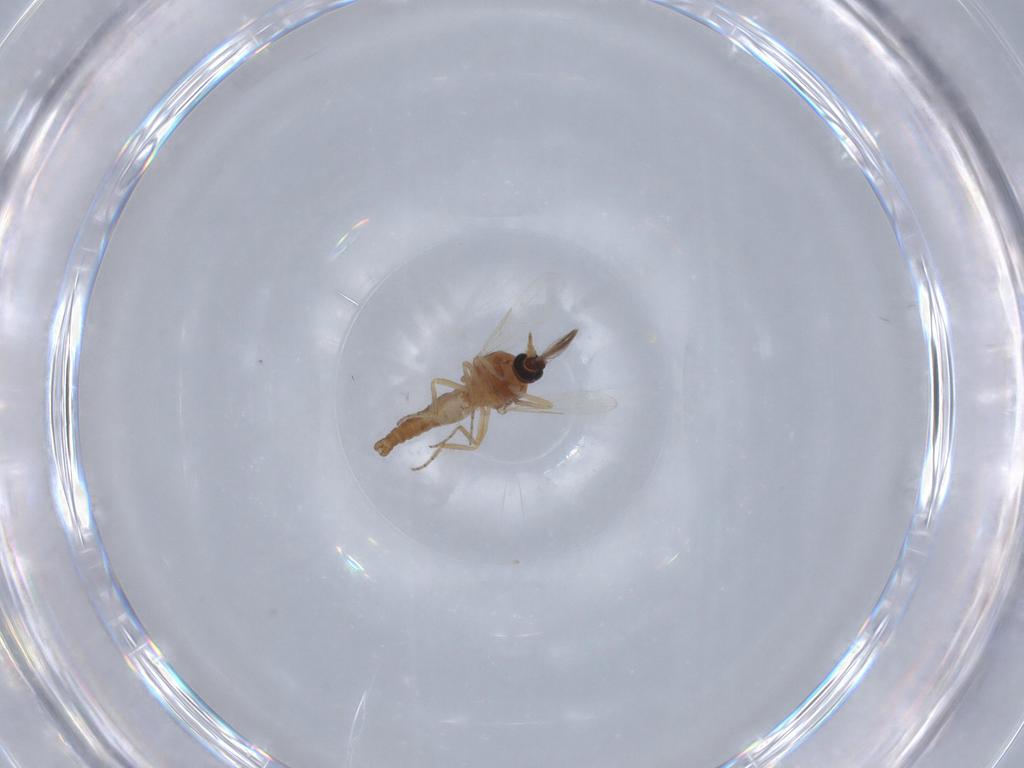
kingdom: Animalia
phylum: Arthropoda
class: Insecta
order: Diptera
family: Ceratopogonidae
